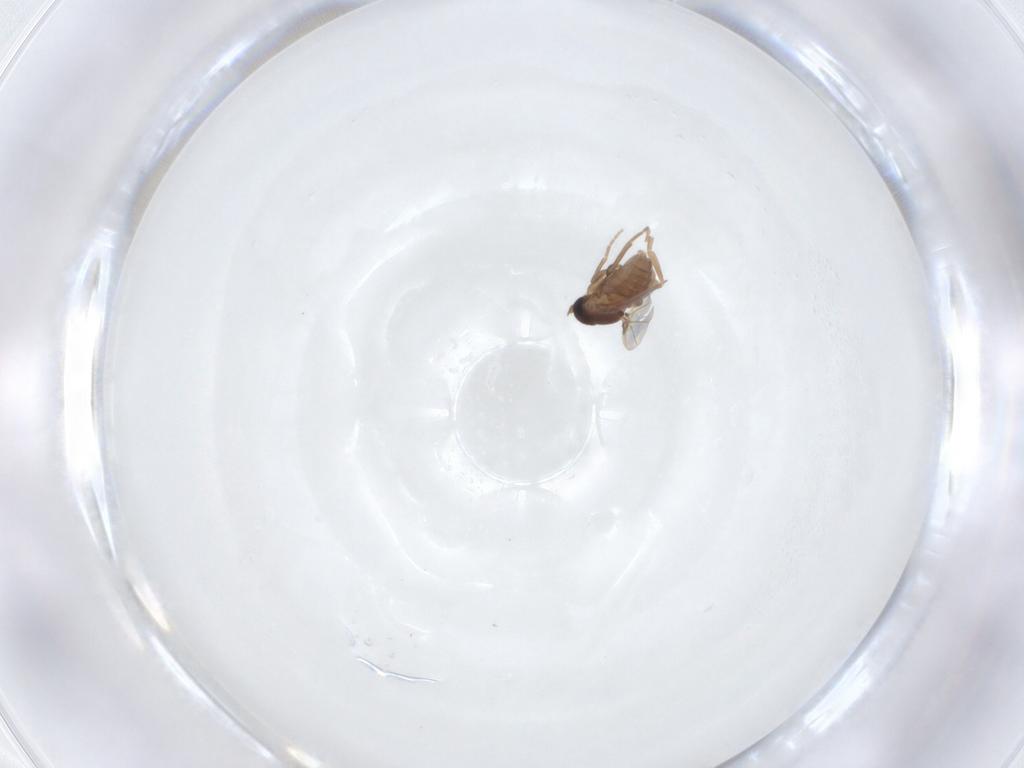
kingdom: Animalia
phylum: Arthropoda
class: Insecta
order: Diptera
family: Phoridae
